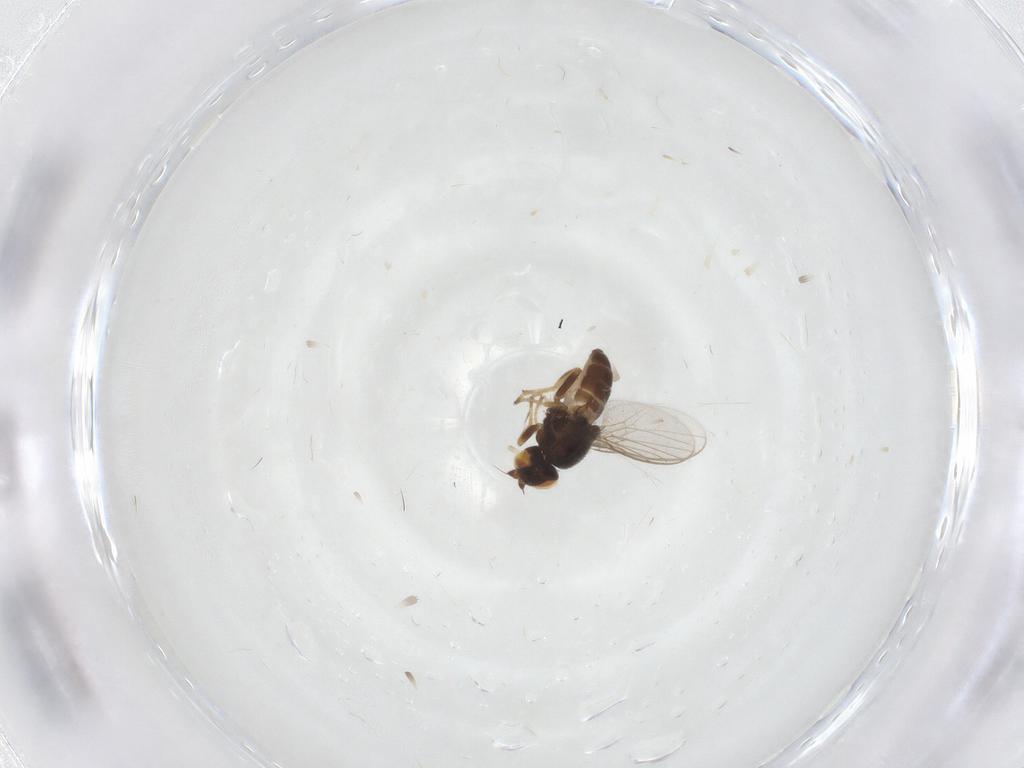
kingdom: Animalia
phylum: Arthropoda
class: Insecta
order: Diptera
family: Chloropidae
